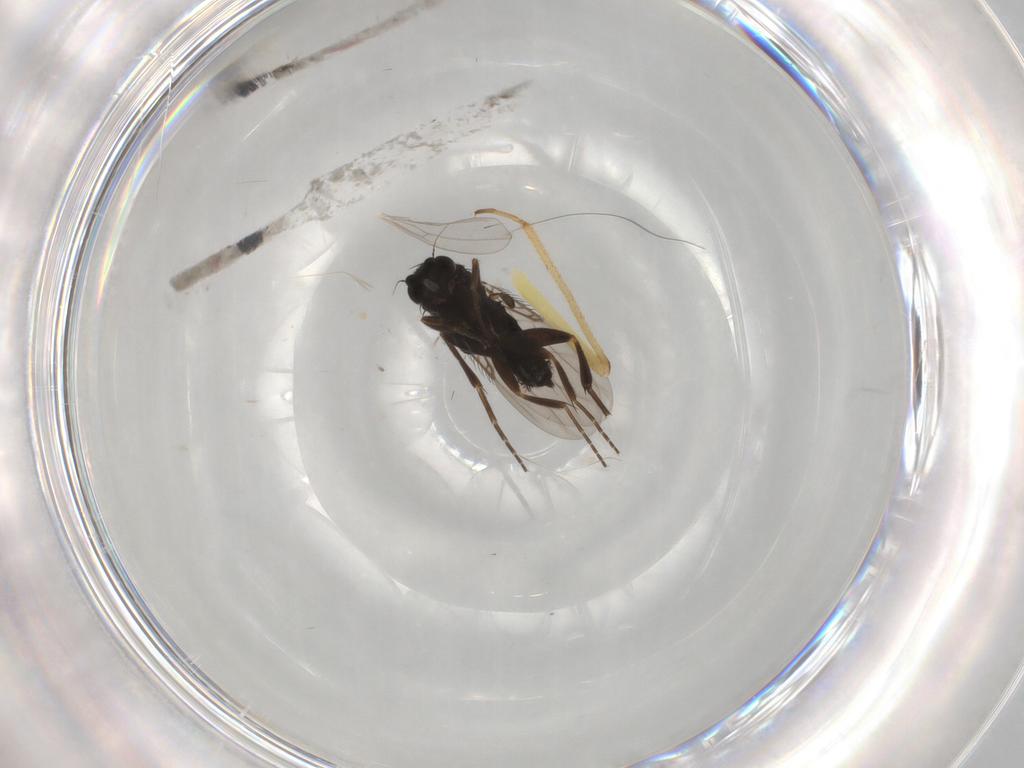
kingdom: Animalia
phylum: Arthropoda
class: Insecta
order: Diptera
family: Phoridae
